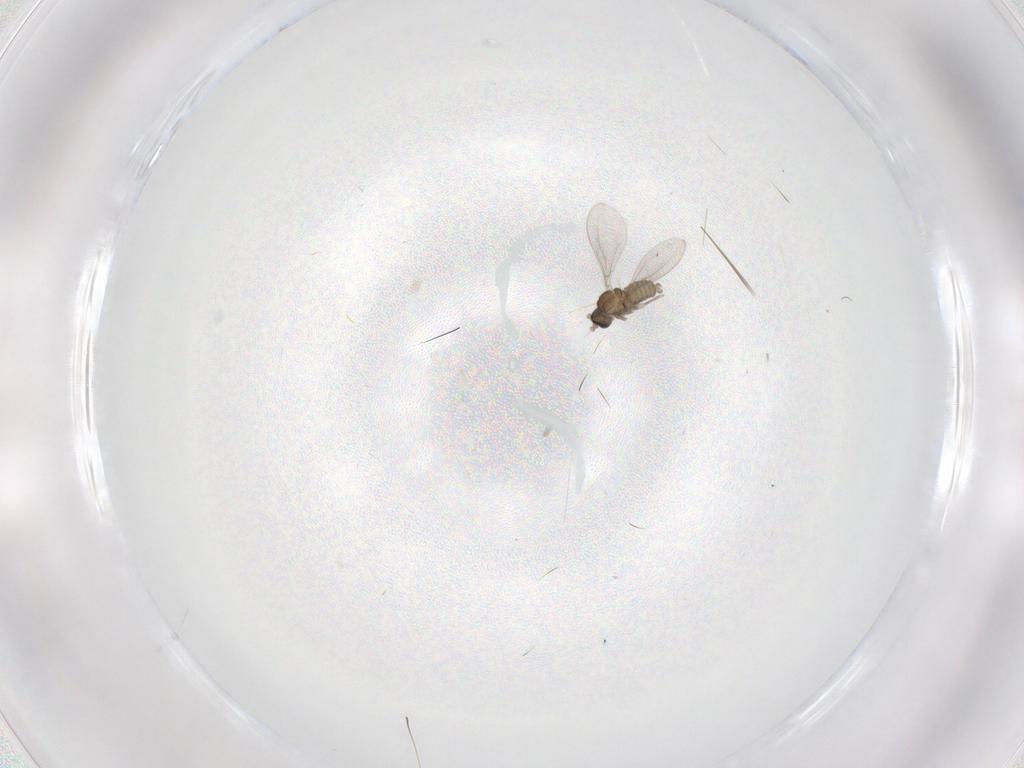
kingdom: Animalia
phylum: Arthropoda
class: Insecta
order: Diptera
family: Cecidomyiidae
